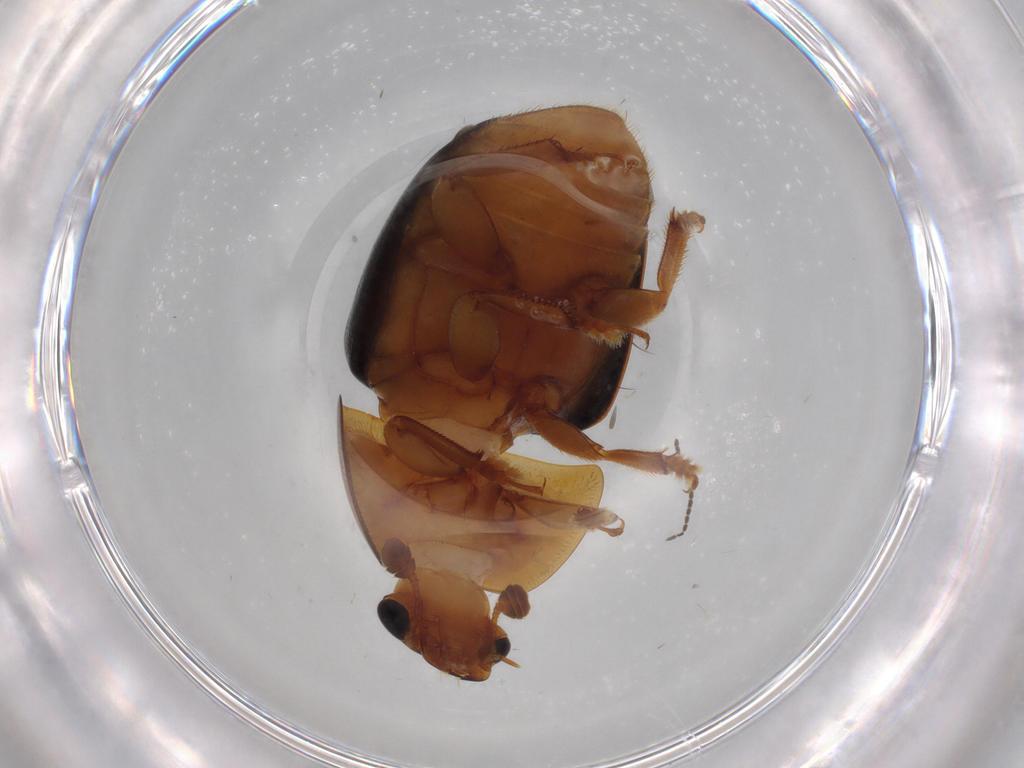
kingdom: Animalia
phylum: Arthropoda
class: Insecta
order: Coleoptera
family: Nitidulidae
